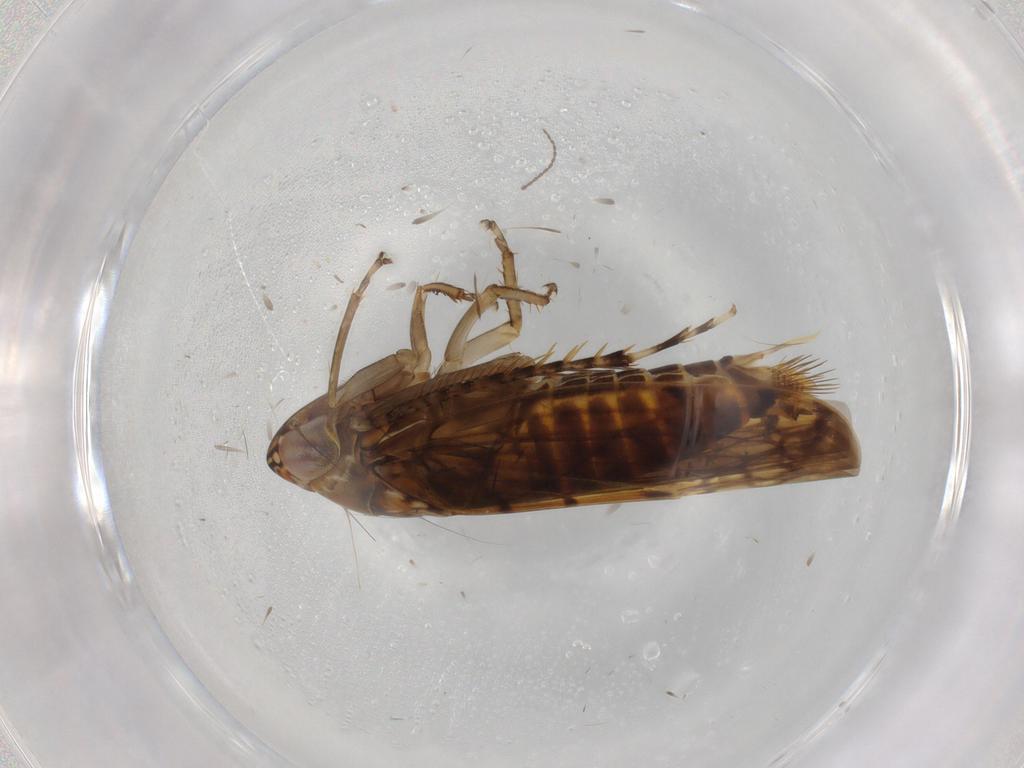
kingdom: Animalia
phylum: Arthropoda
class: Insecta
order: Hemiptera
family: Cicadellidae
